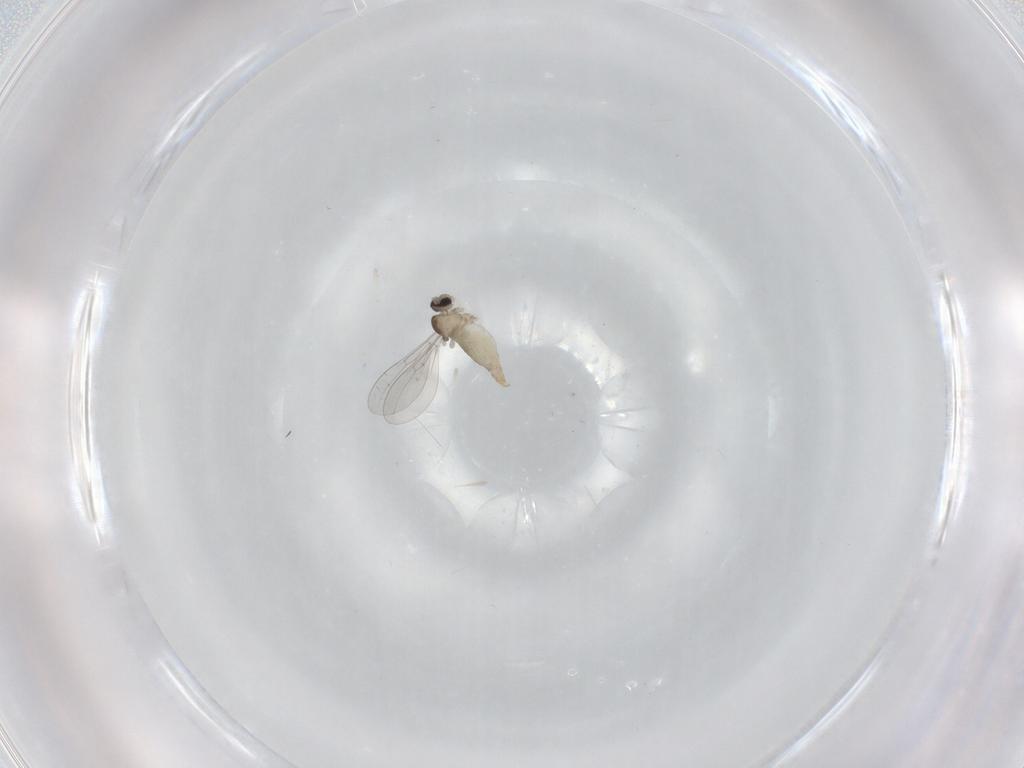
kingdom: Animalia
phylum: Arthropoda
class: Insecta
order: Diptera
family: Cecidomyiidae
